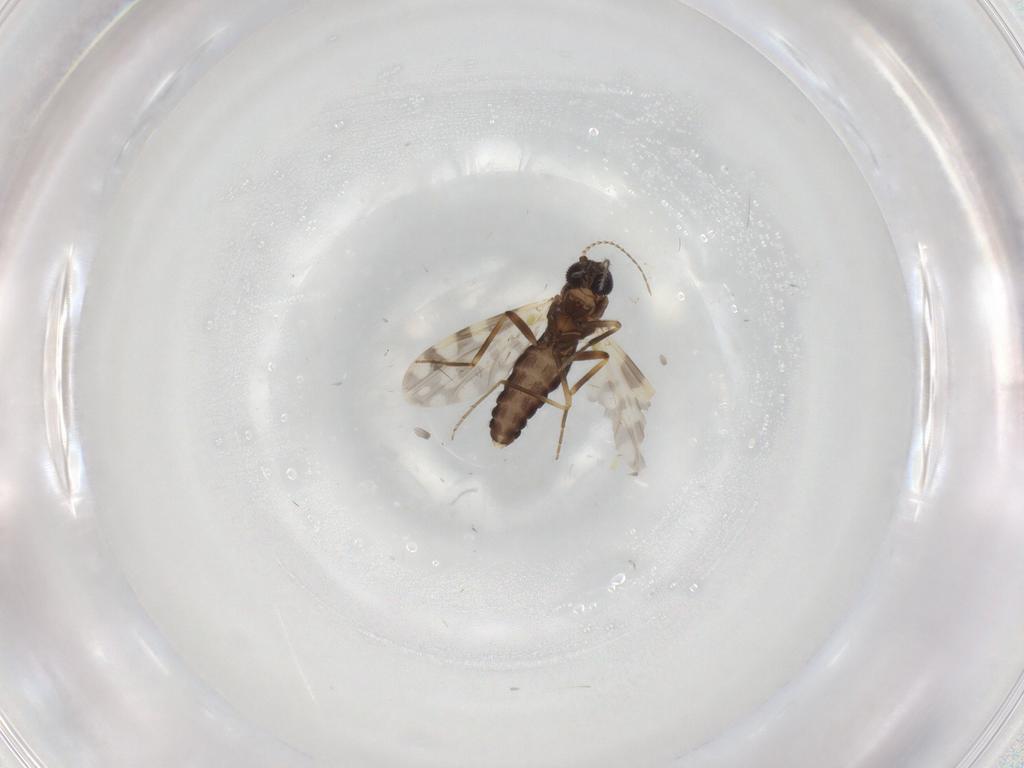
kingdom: Animalia
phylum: Arthropoda
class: Insecta
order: Diptera
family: Ceratopogonidae
